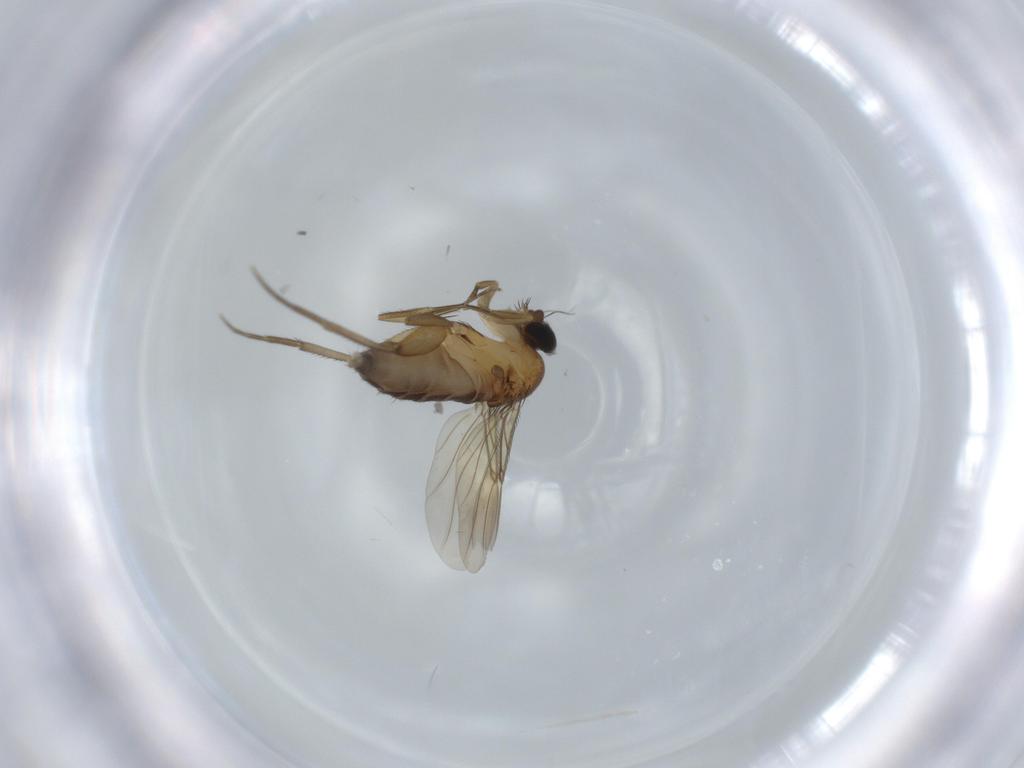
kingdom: Animalia
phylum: Arthropoda
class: Insecta
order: Diptera
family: Phoridae
